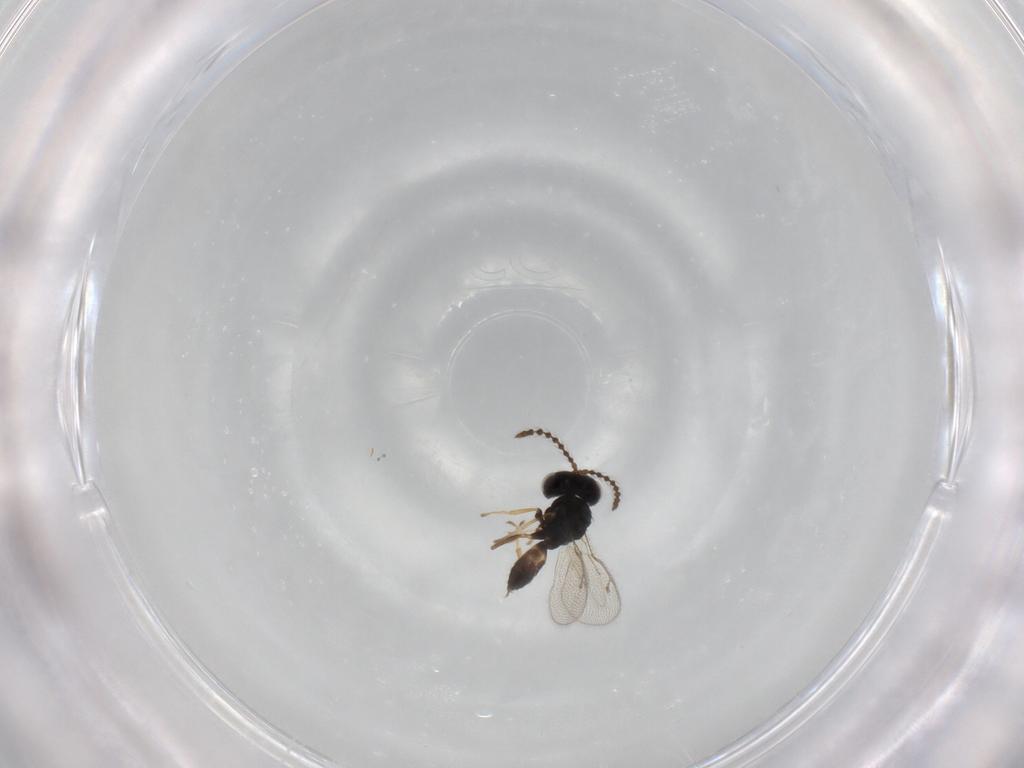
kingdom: Animalia
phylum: Arthropoda
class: Insecta
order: Hymenoptera
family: Pteromalidae
